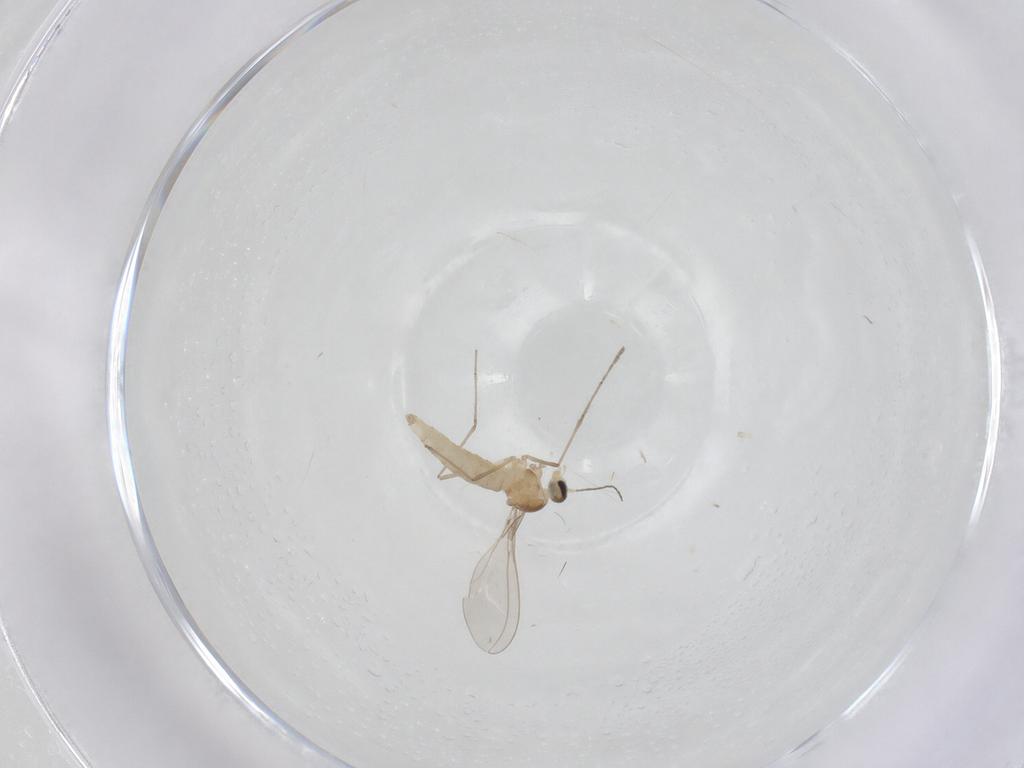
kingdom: Animalia
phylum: Arthropoda
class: Insecta
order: Diptera
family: Cecidomyiidae
